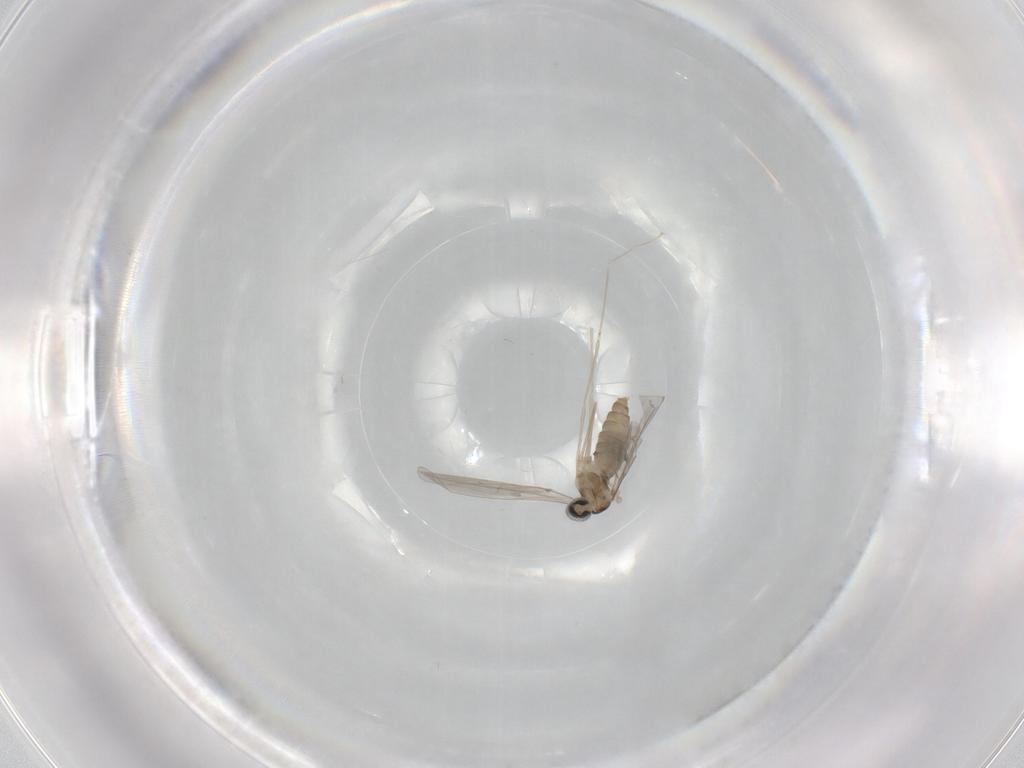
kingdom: Animalia
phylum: Arthropoda
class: Insecta
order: Diptera
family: Cecidomyiidae
